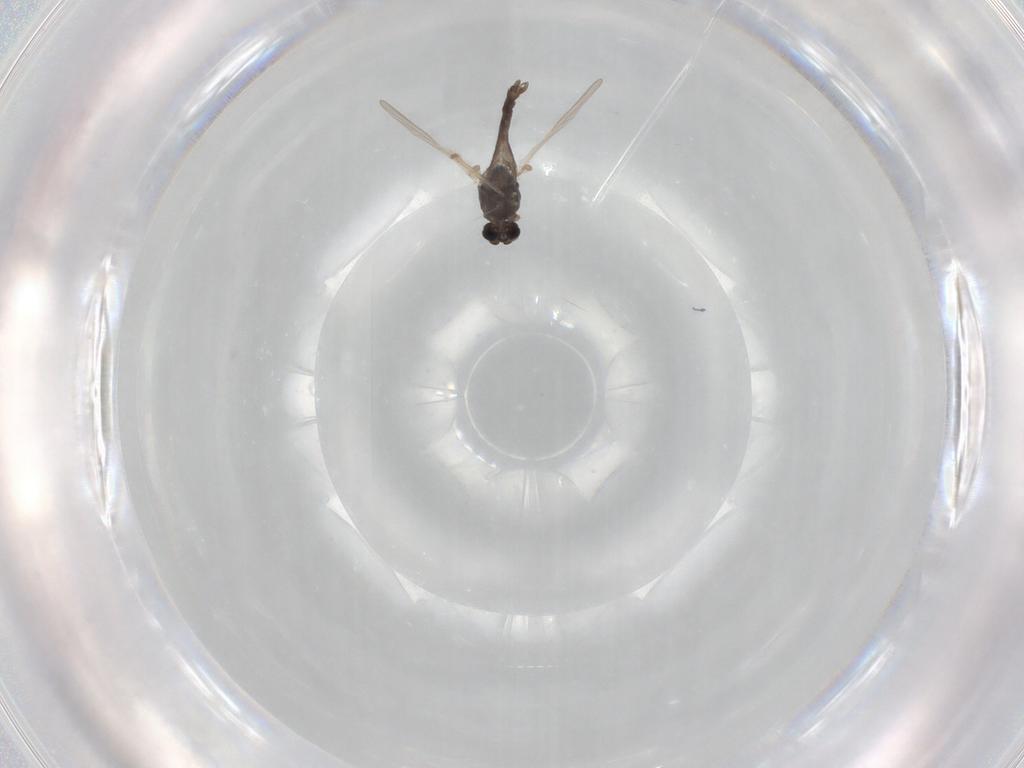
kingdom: Animalia
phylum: Arthropoda
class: Insecta
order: Diptera
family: Chironomidae
